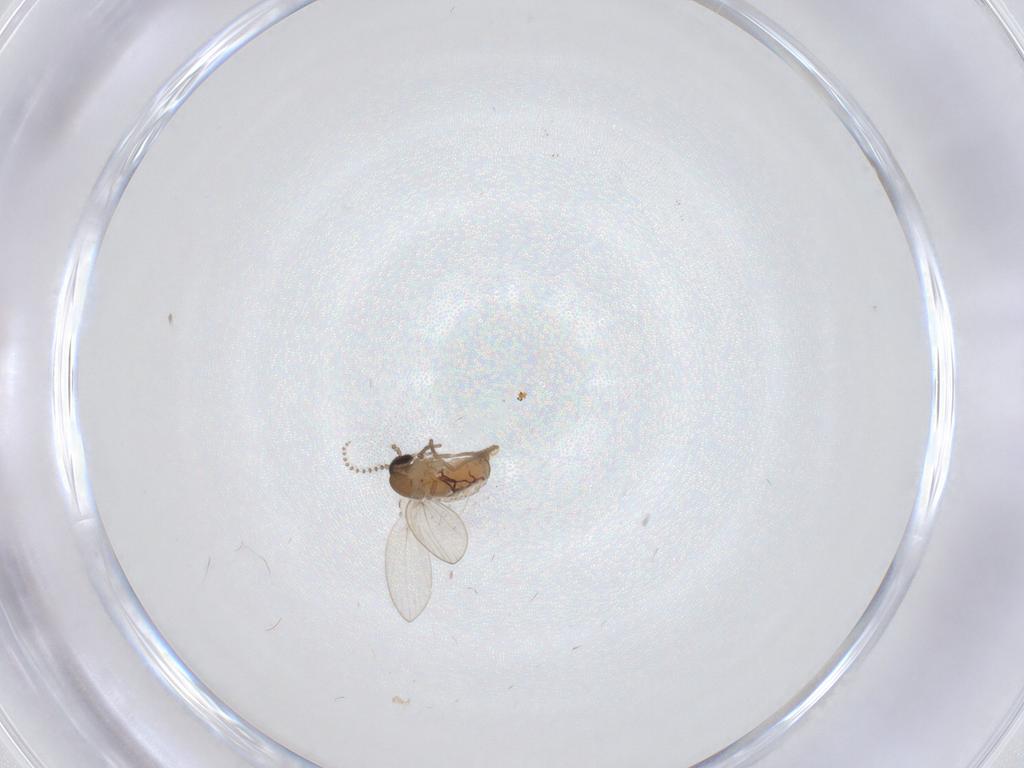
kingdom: Animalia
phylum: Arthropoda
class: Insecta
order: Diptera
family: Psychodidae
